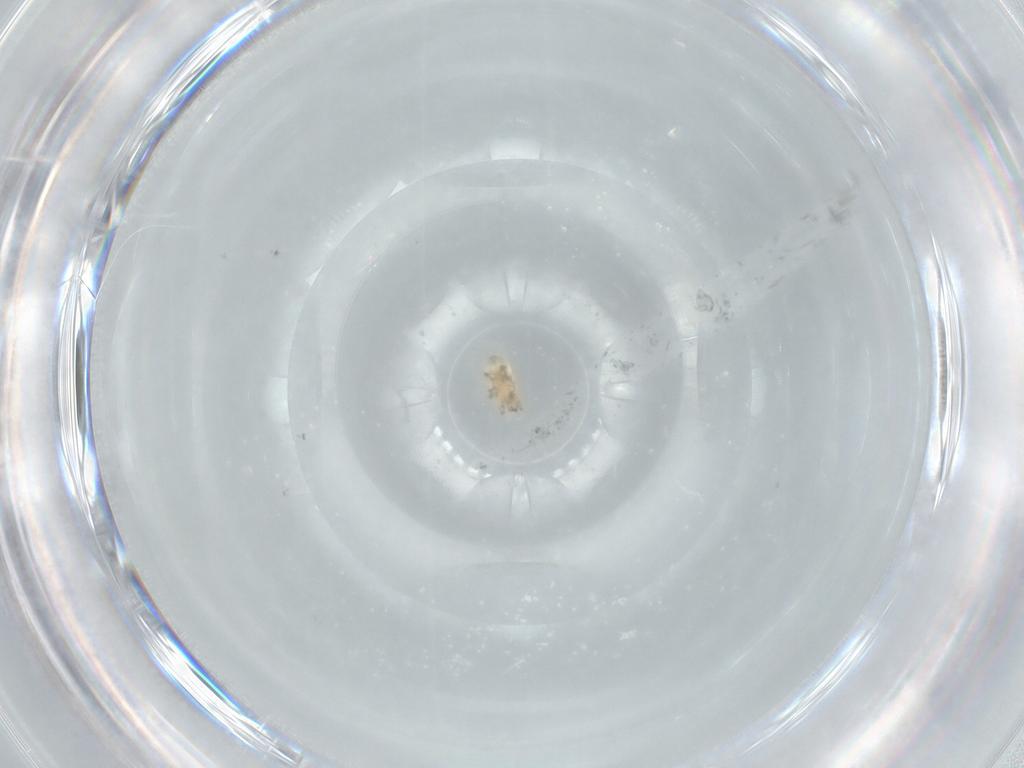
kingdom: Animalia
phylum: Arthropoda
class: Arachnida
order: Mesostigmata
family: Ascidae
